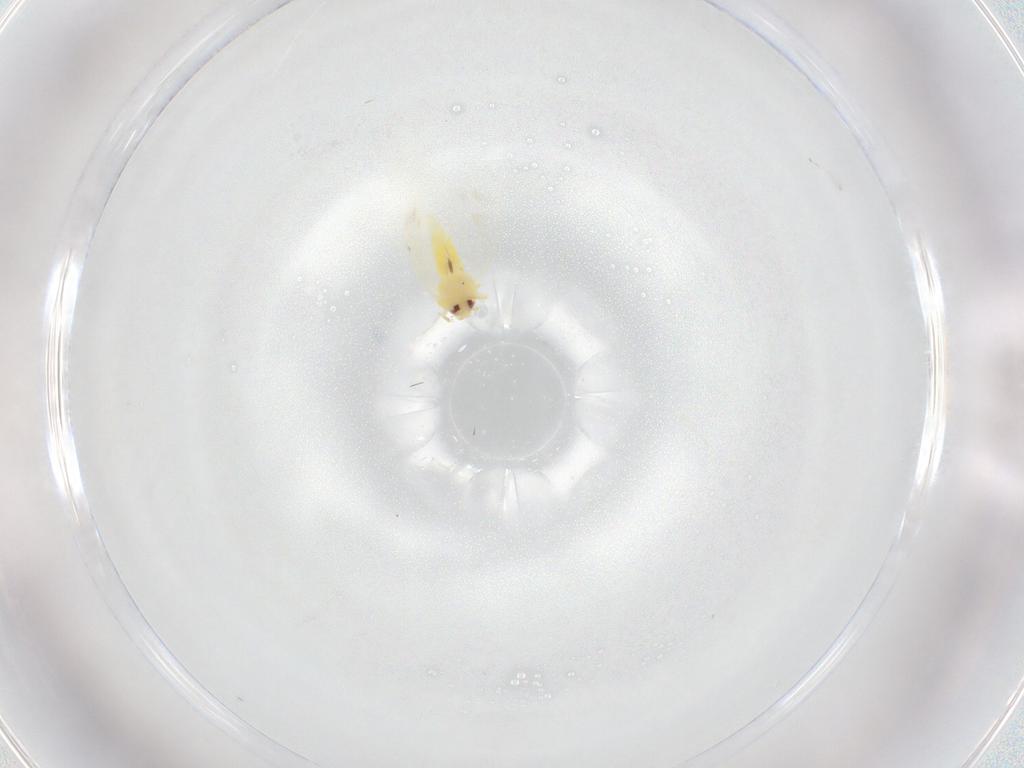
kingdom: Animalia
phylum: Arthropoda
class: Insecta
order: Hemiptera
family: Aleyrodidae
